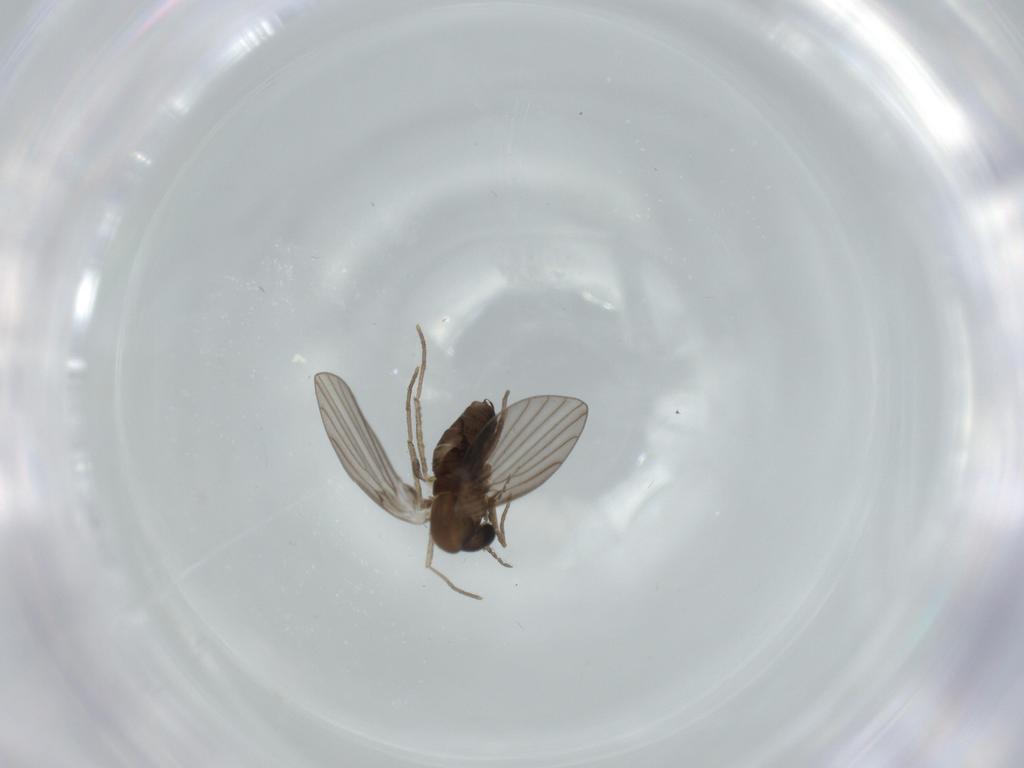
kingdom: Animalia
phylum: Arthropoda
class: Insecta
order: Diptera
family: Psychodidae
